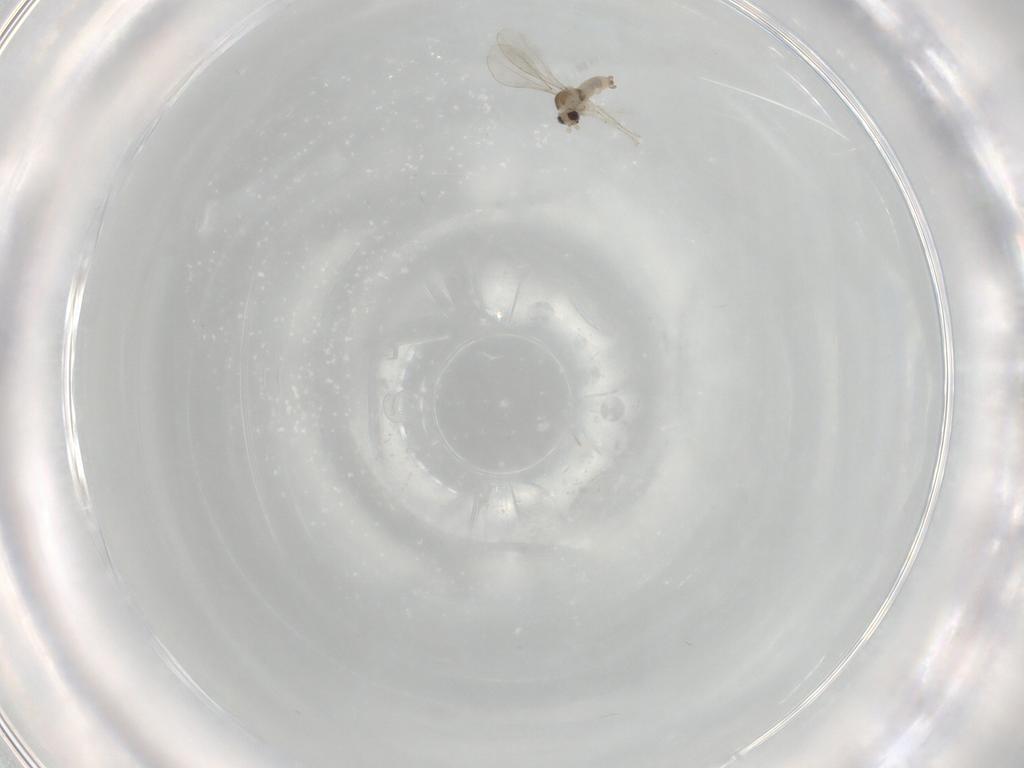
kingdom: Animalia
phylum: Arthropoda
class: Insecta
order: Diptera
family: Cecidomyiidae
